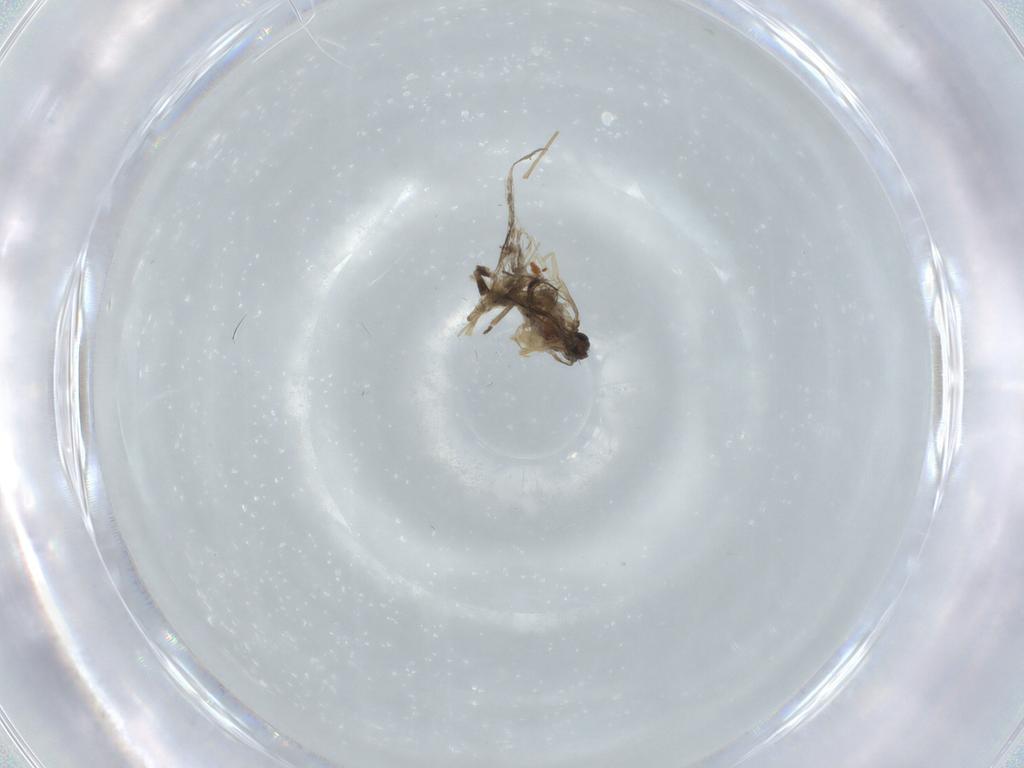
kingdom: Animalia
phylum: Arthropoda
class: Insecta
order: Diptera
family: Chironomidae
